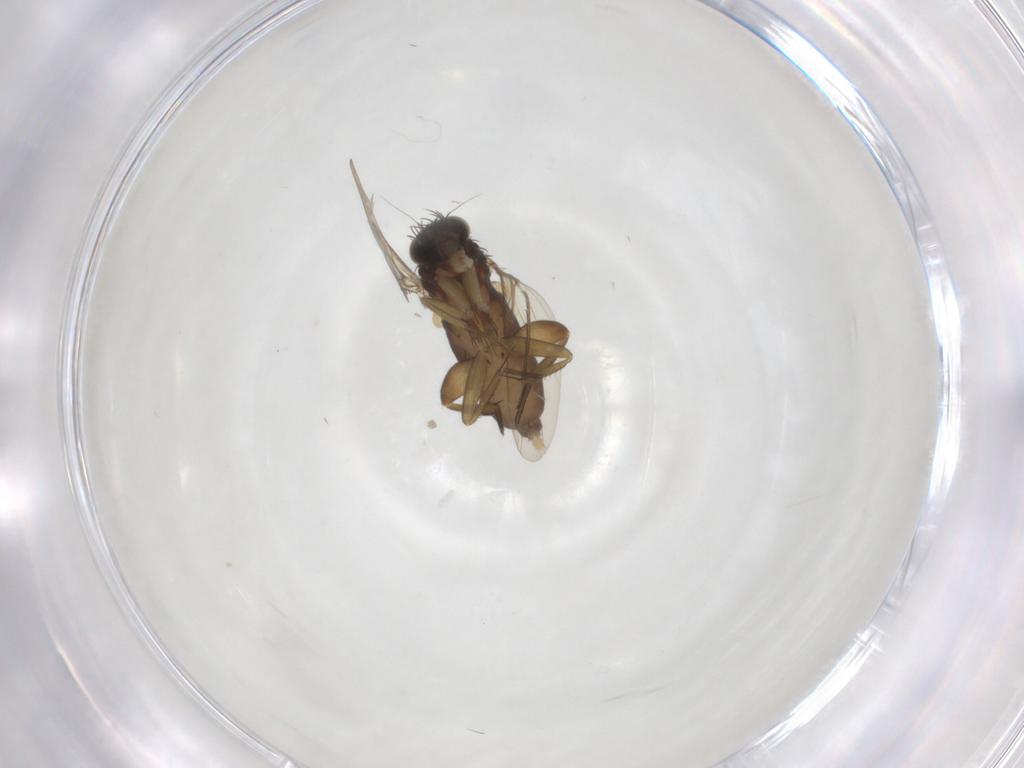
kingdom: Animalia
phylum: Arthropoda
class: Insecta
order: Diptera
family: Phoridae
